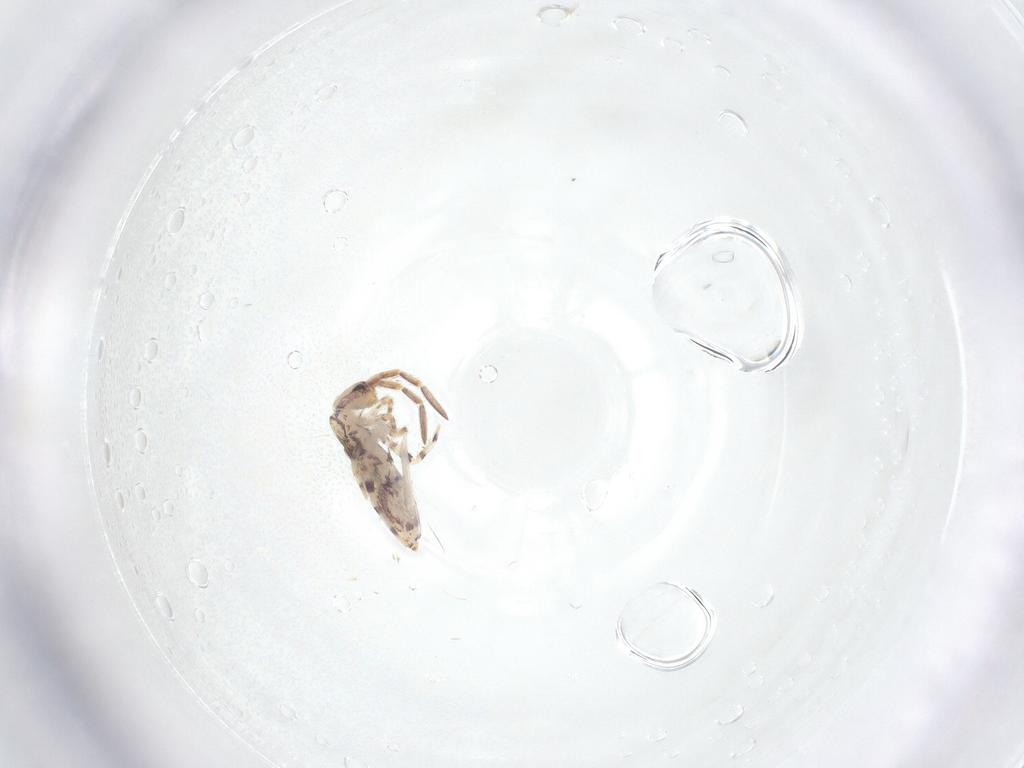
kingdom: Animalia
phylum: Arthropoda
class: Collembola
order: Entomobryomorpha
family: Entomobryidae
